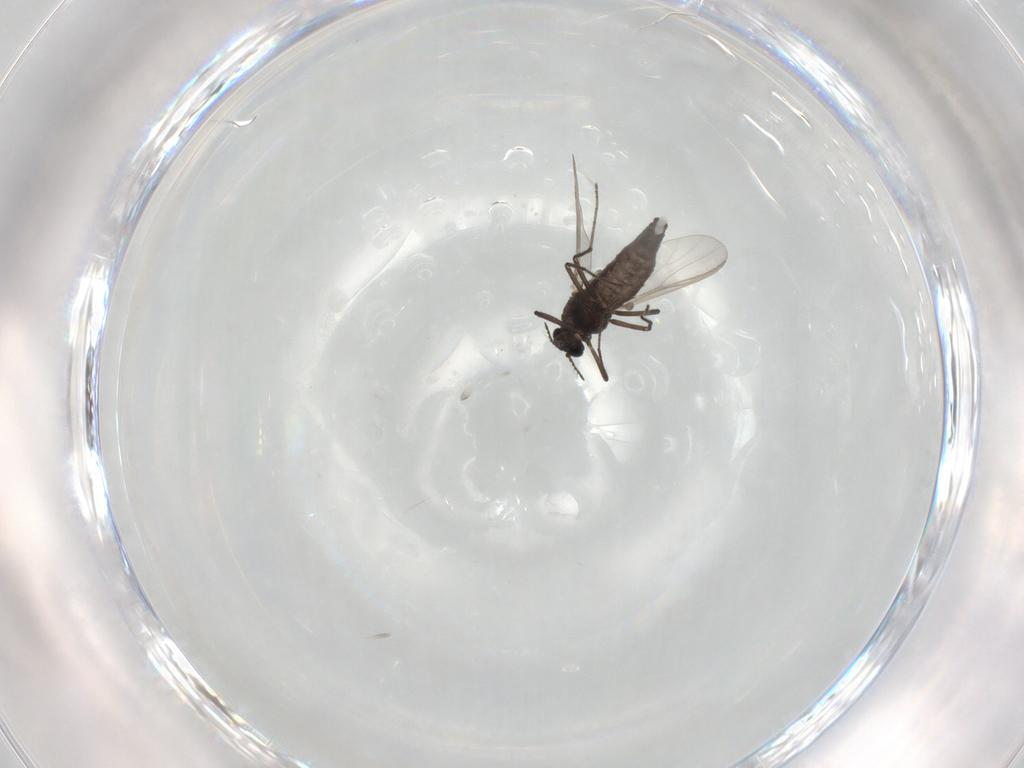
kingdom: Animalia
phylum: Arthropoda
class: Insecta
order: Diptera
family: Chironomidae
